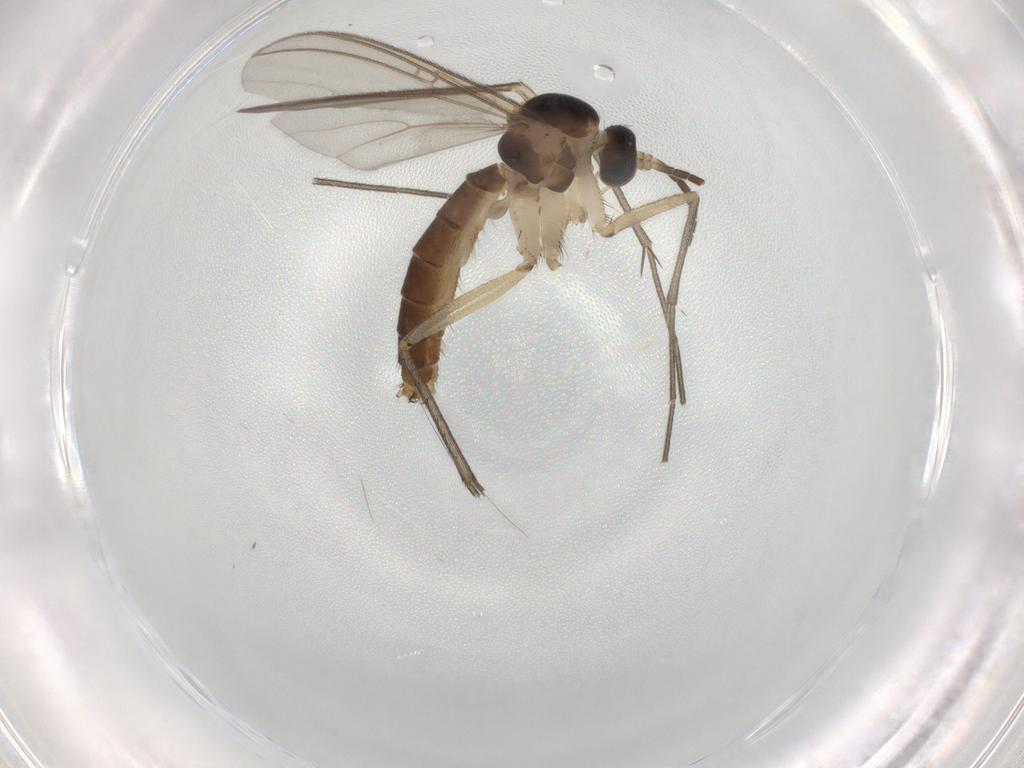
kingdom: Animalia
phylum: Arthropoda
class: Insecta
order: Diptera
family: Mycetophilidae
